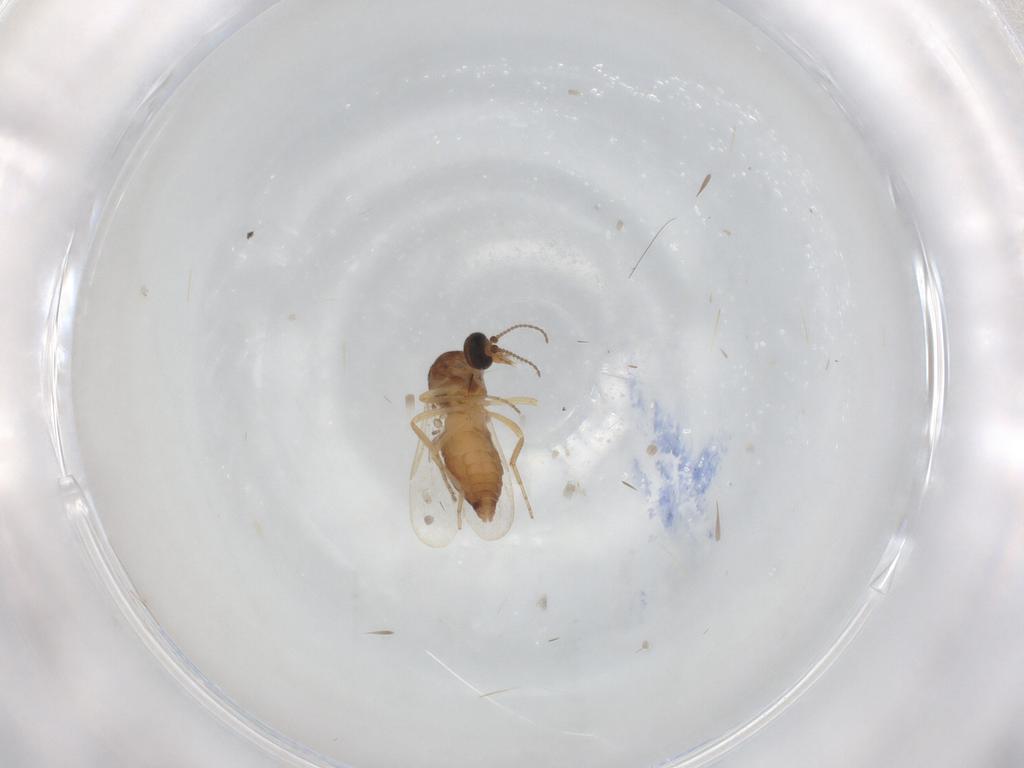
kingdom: Animalia
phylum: Arthropoda
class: Insecta
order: Diptera
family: Ceratopogonidae
